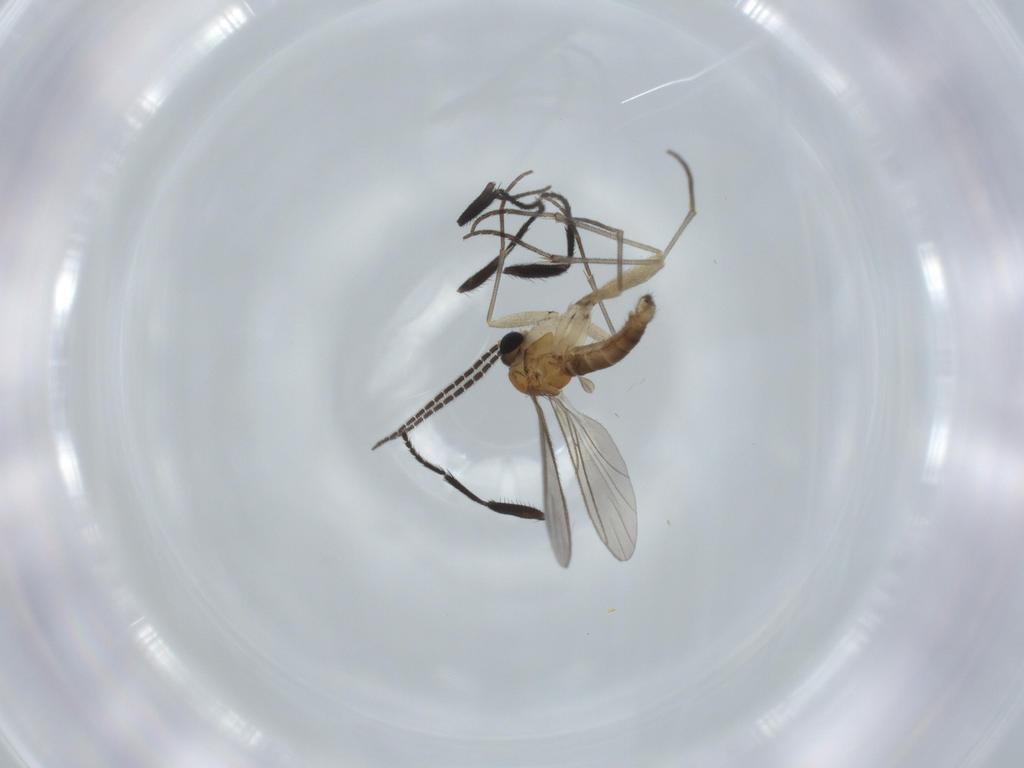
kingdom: Animalia
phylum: Arthropoda
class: Insecta
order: Diptera
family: Sciaridae
